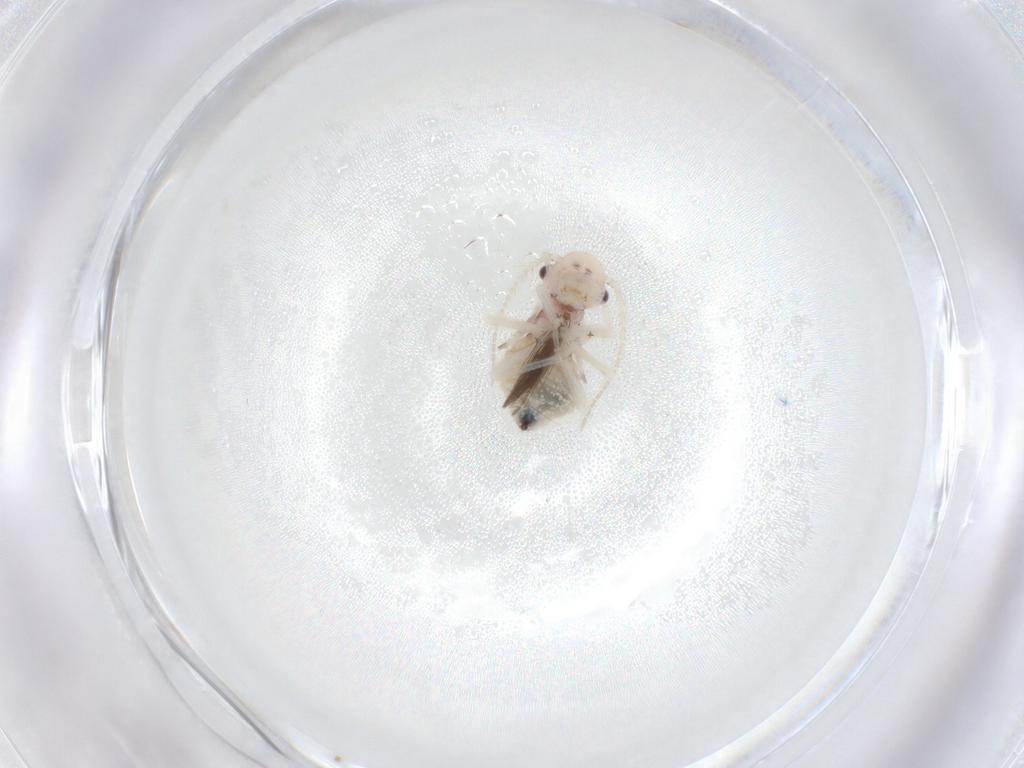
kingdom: Animalia
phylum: Arthropoda
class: Insecta
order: Psocodea
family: Amphipsocidae
